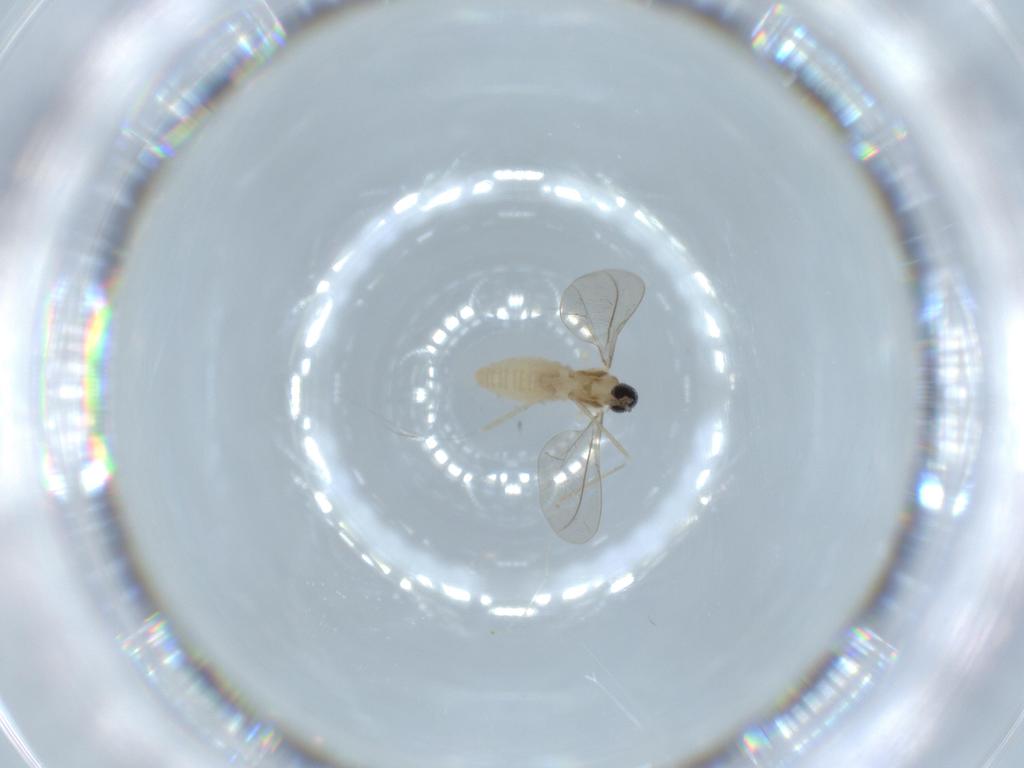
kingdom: Animalia
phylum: Arthropoda
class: Insecta
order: Diptera
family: Cecidomyiidae
